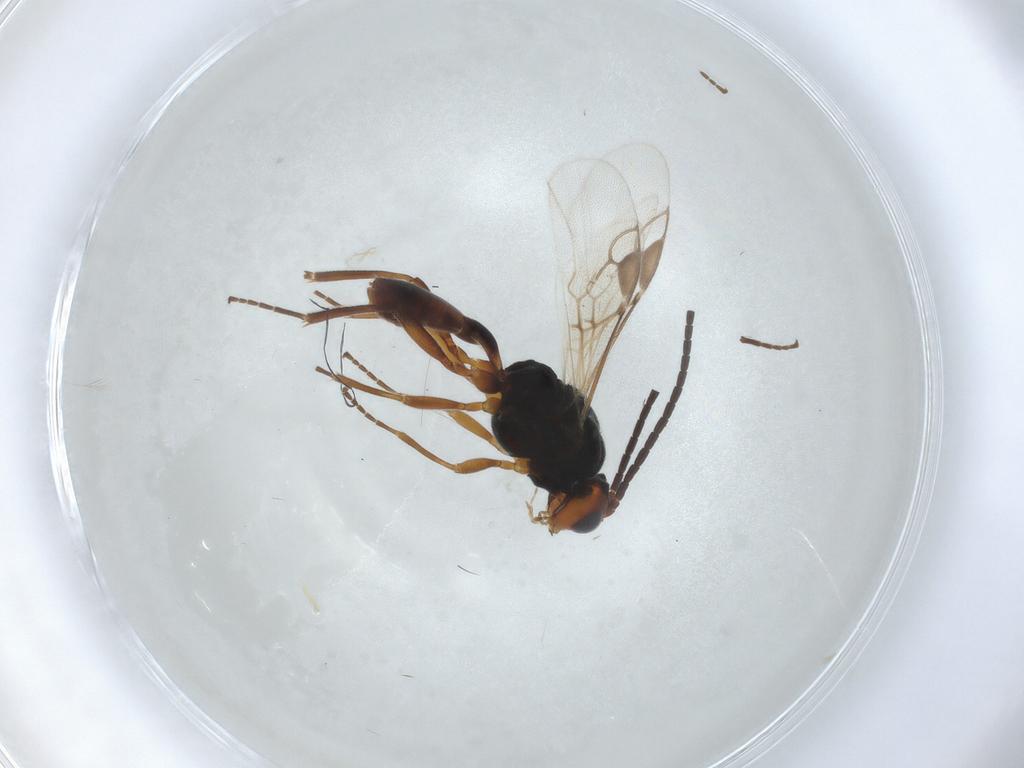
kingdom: Animalia
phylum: Arthropoda
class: Insecta
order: Hymenoptera
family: Braconidae
